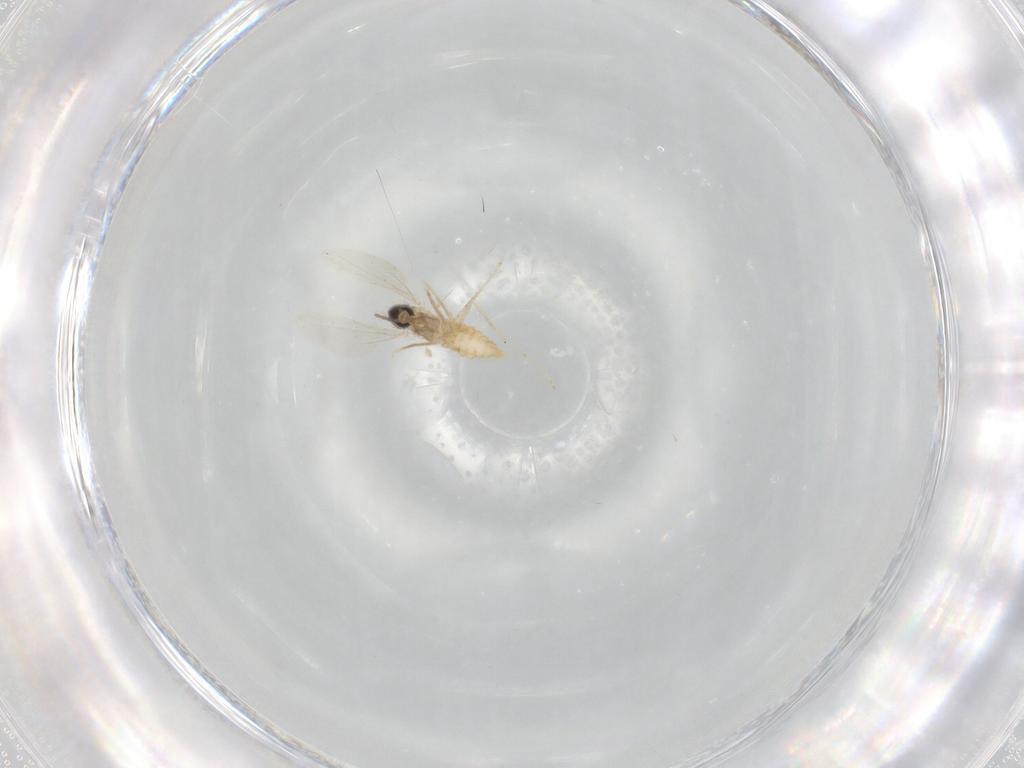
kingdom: Animalia
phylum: Arthropoda
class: Insecta
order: Diptera
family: Cecidomyiidae
